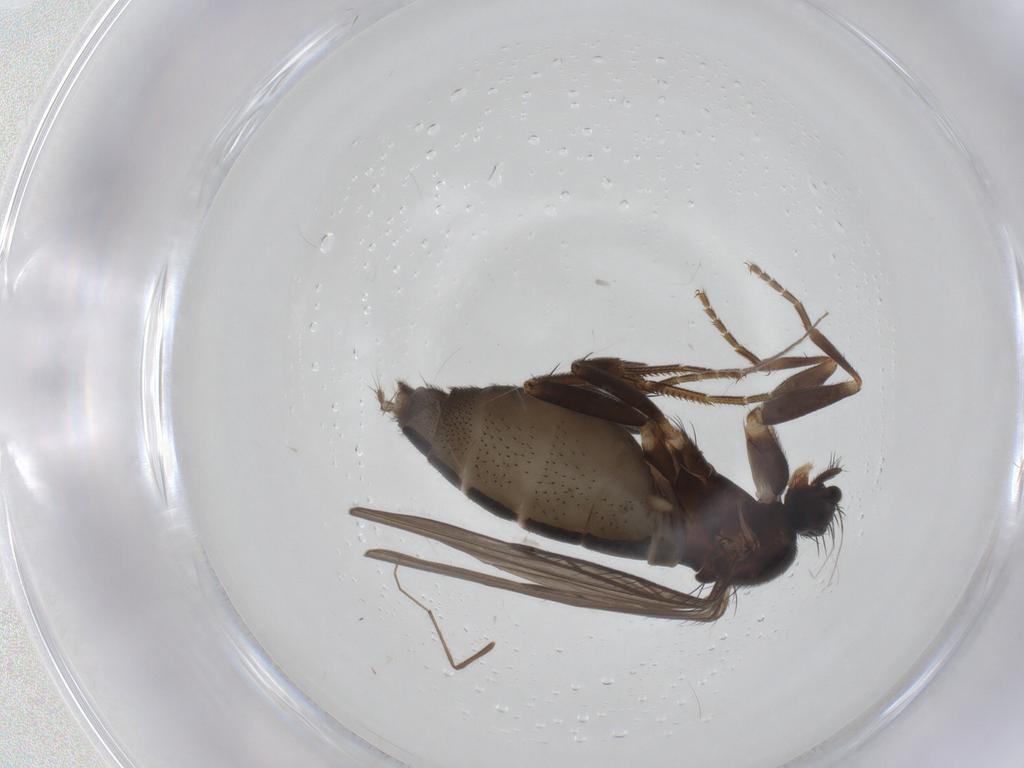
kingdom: Animalia
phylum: Arthropoda
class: Insecta
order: Diptera
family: Phoridae
